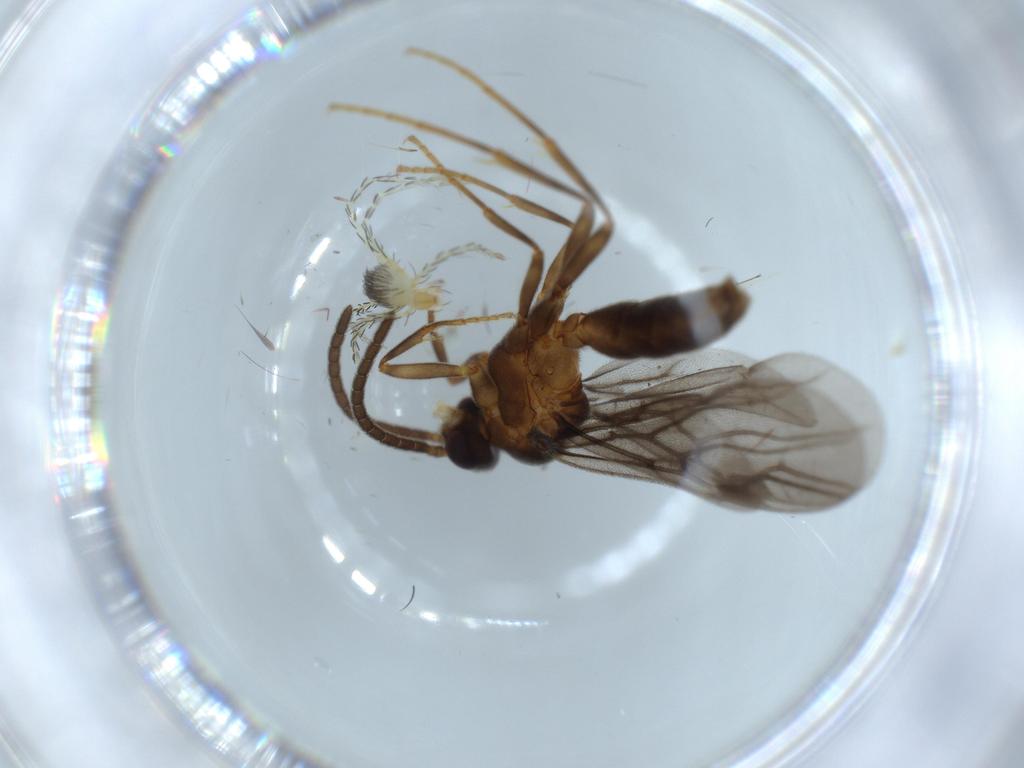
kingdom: Animalia
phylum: Arthropoda
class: Insecta
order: Hymenoptera
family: Formicidae
